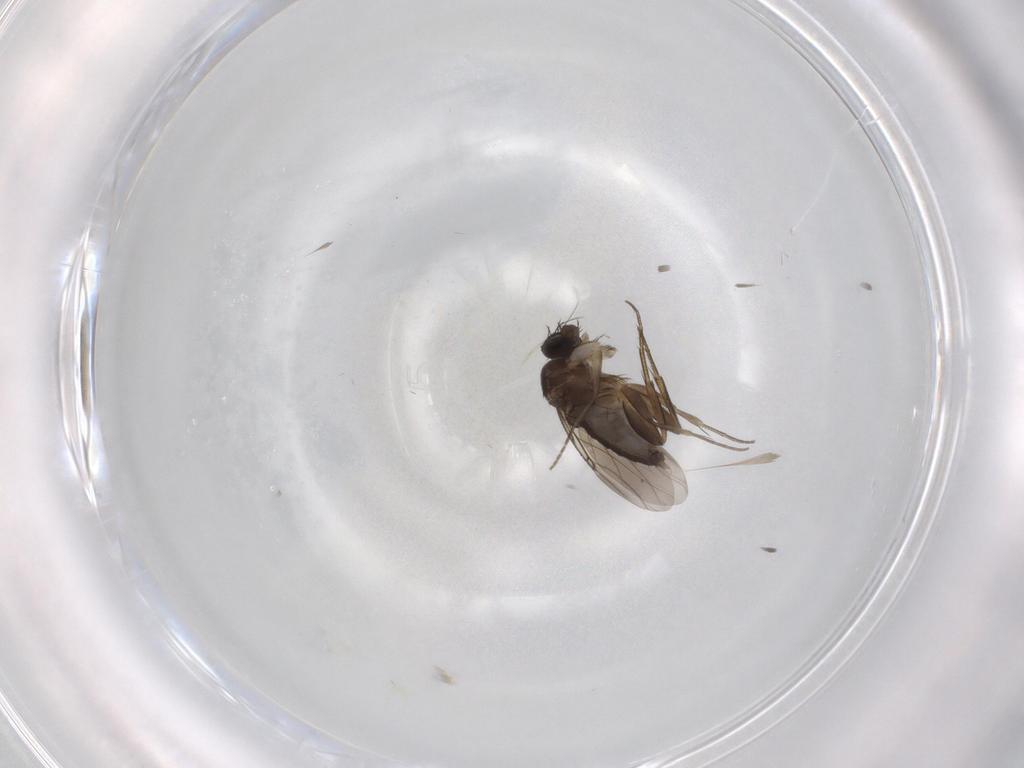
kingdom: Animalia
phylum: Arthropoda
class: Insecta
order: Diptera
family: Phoridae
